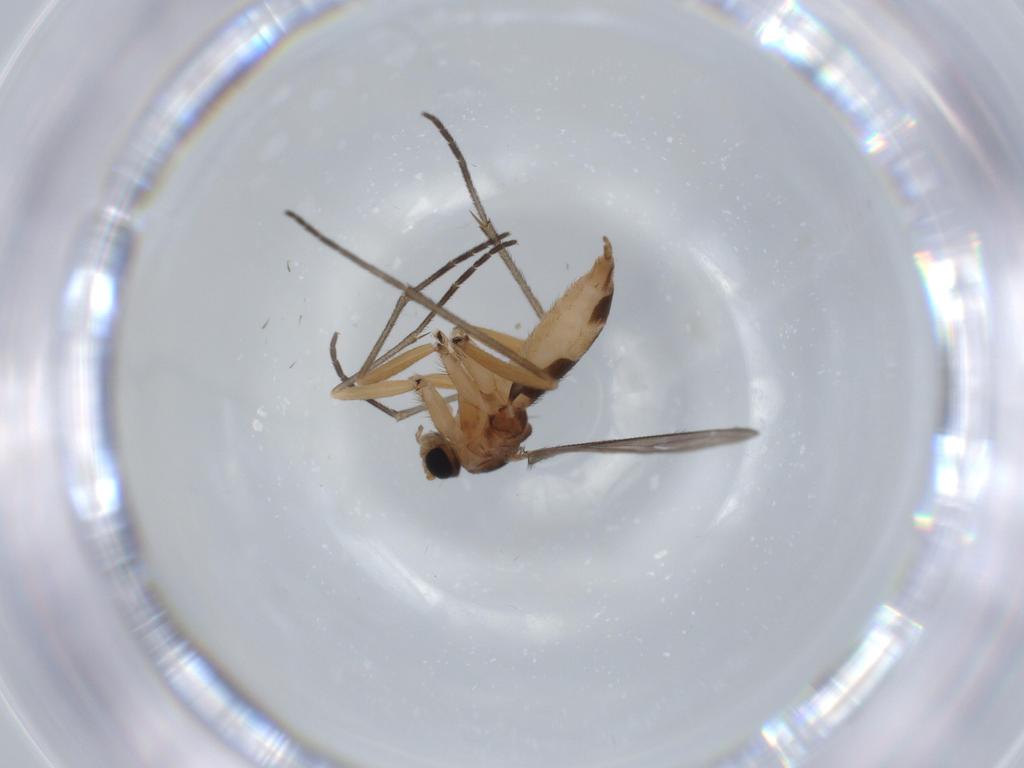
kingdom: Animalia
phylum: Arthropoda
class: Insecta
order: Diptera
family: Sciaridae
